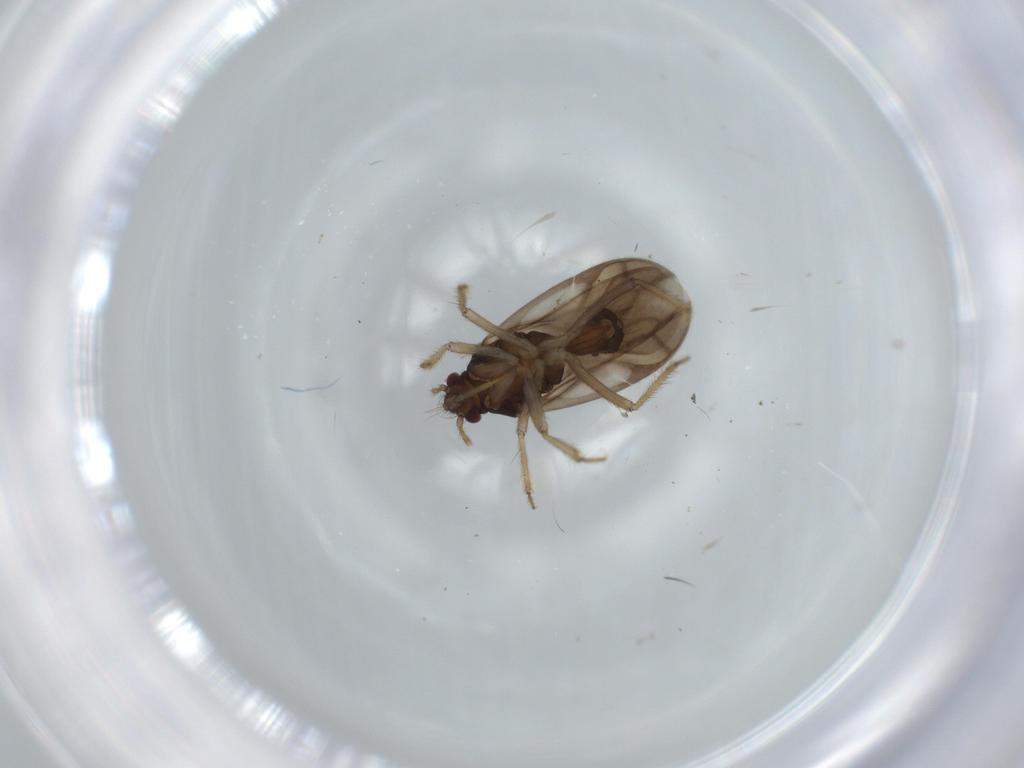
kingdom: Animalia
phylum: Arthropoda
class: Insecta
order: Hemiptera
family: Ceratocombidae
